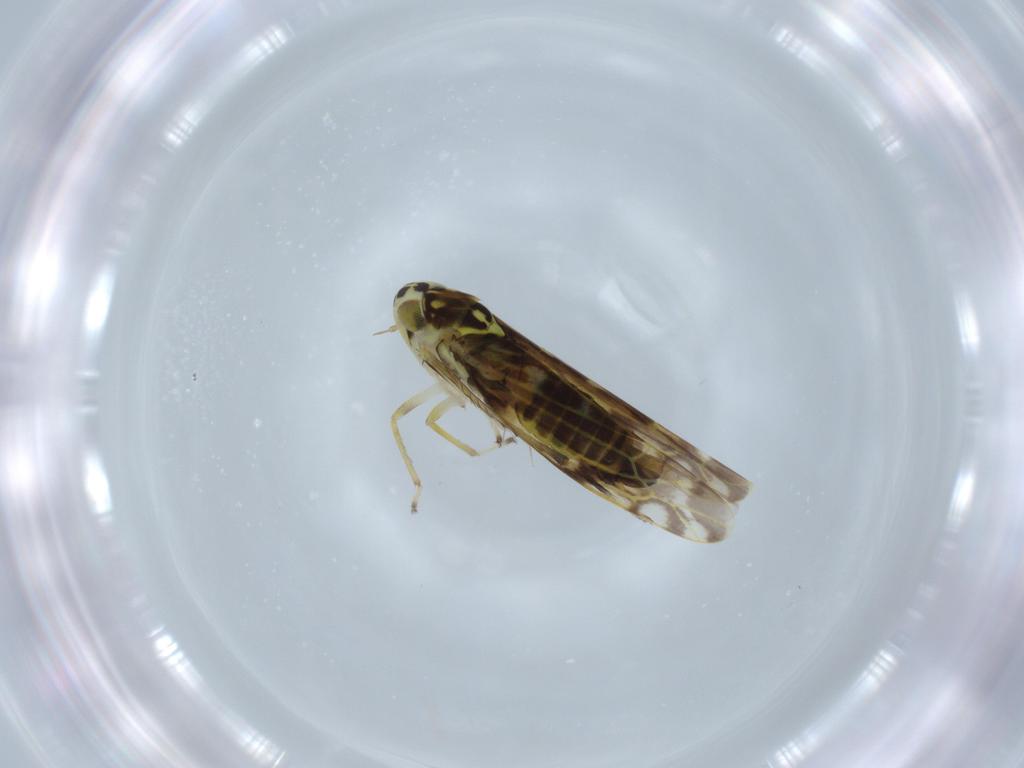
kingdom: Animalia
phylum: Arthropoda
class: Insecta
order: Hemiptera
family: Cicadellidae
